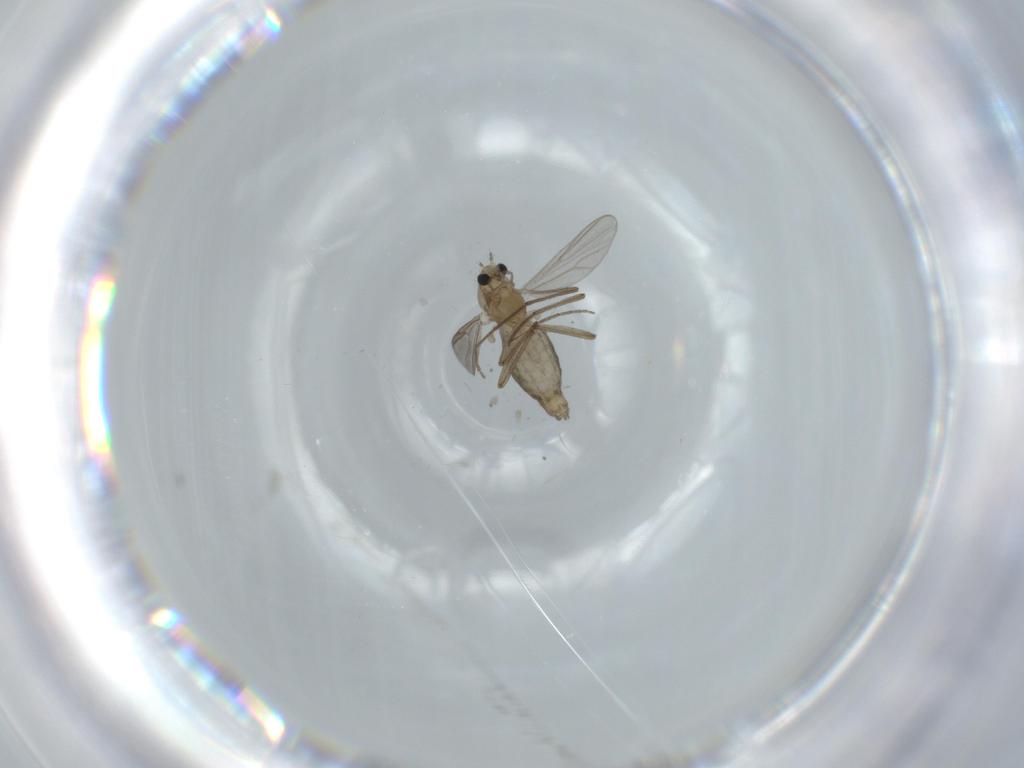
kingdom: Animalia
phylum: Arthropoda
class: Insecta
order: Diptera
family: Chironomidae
